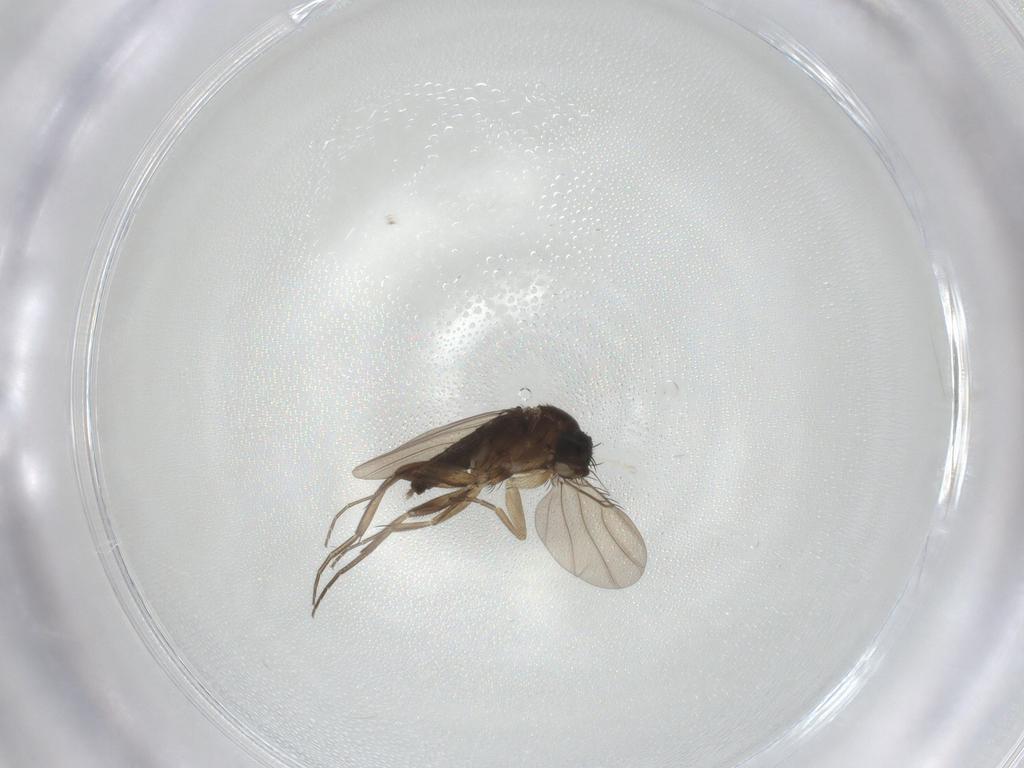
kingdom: Animalia
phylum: Arthropoda
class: Insecta
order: Diptera
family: Phoridae
